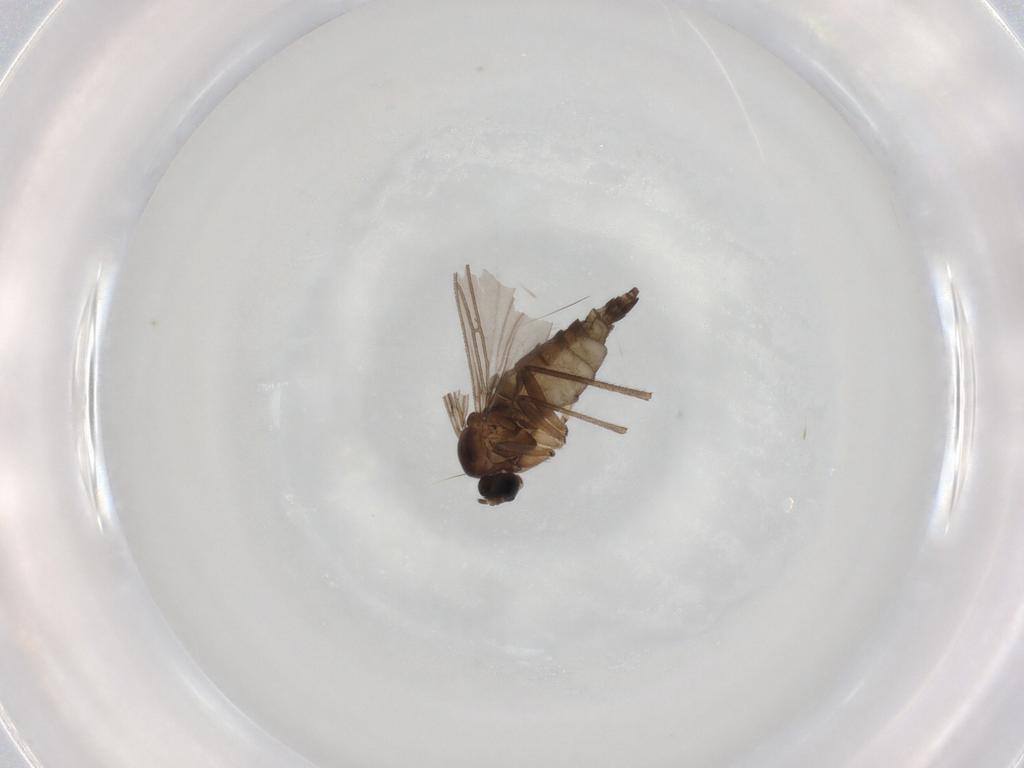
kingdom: Animalia
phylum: Arthropoda
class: Insecta
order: Diptera
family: Sciaridae
